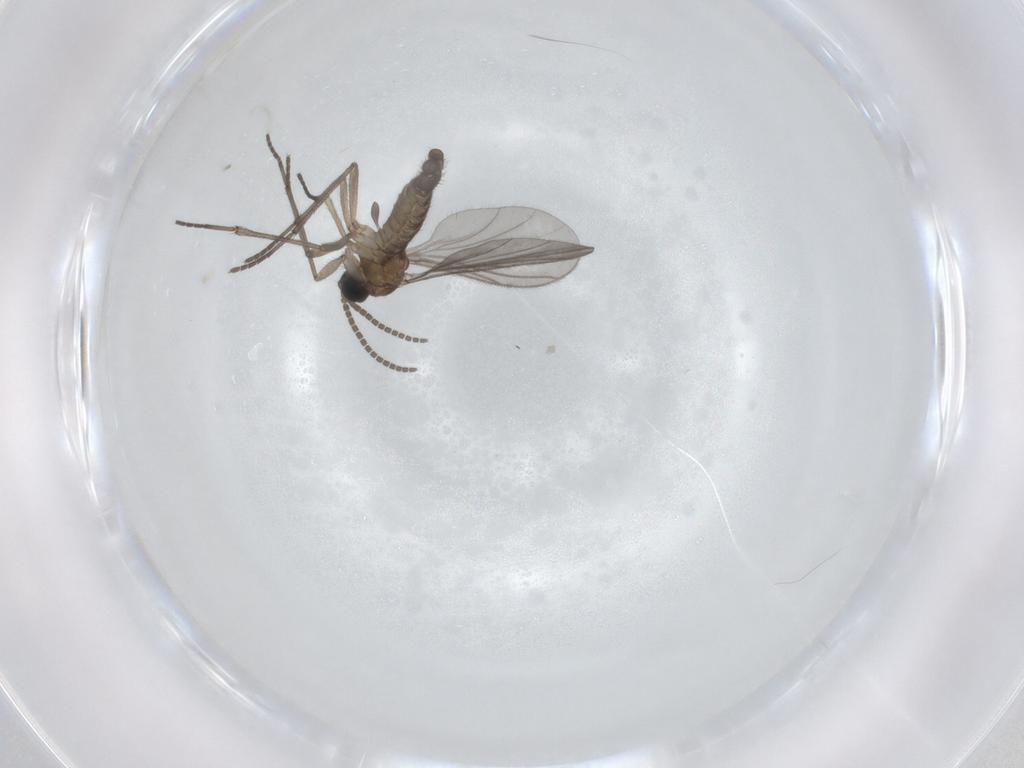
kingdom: Animalia
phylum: Arthropoda
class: Insecta
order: Diptera
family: Sciaridae
